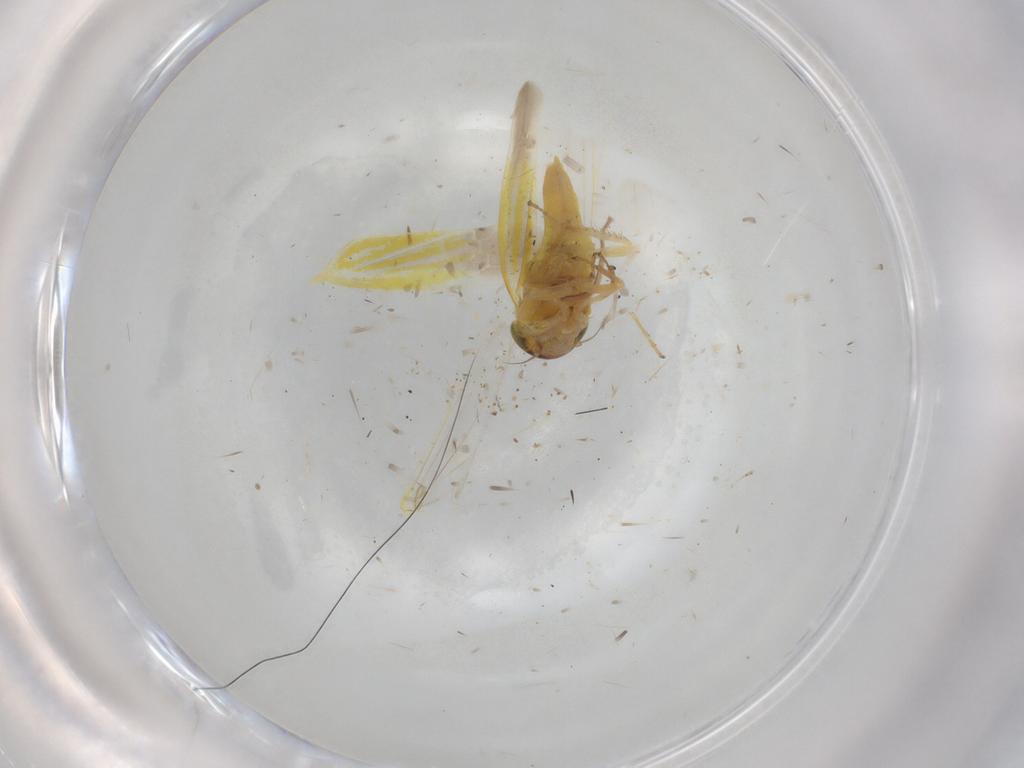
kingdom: Animalia
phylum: Arthropoda
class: Insecta
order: Hemiptera
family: Cicadellidae
